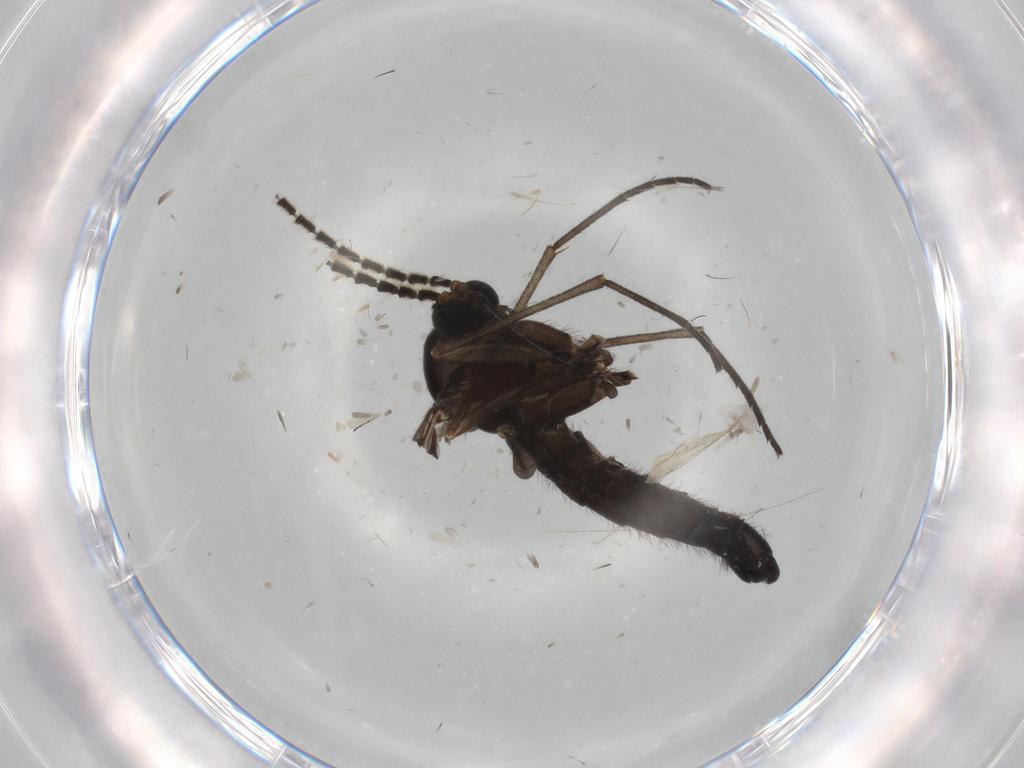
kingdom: Animalia
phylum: Arthropoda
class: Insecta
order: Diptera
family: Sciaridae
